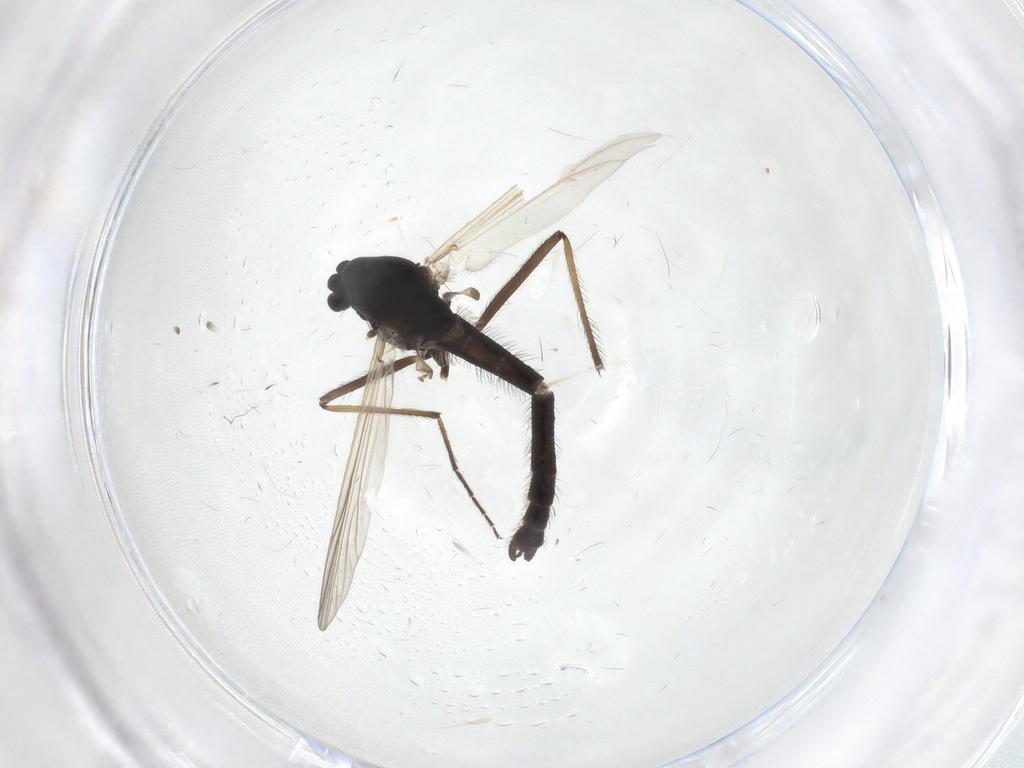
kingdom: Animalia
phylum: Arthropoda
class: Insecta
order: Diptera
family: Chironomidae
